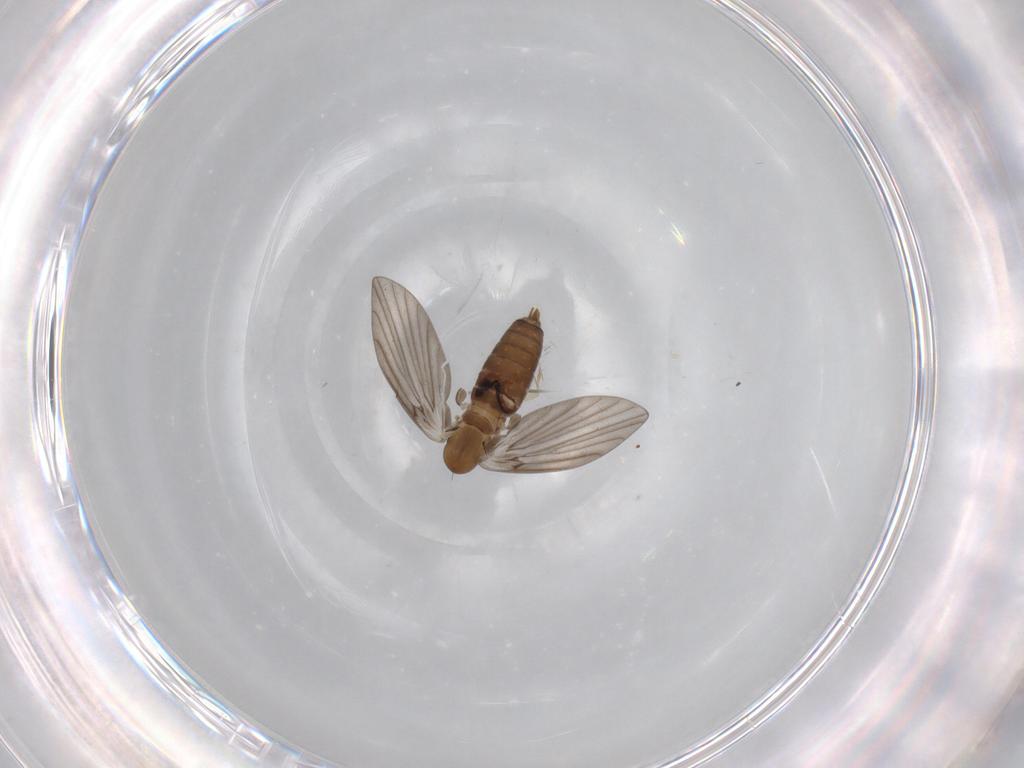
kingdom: Animalia
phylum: Arthropoda
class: Insecta
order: Diptera
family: Ditomyiidae
